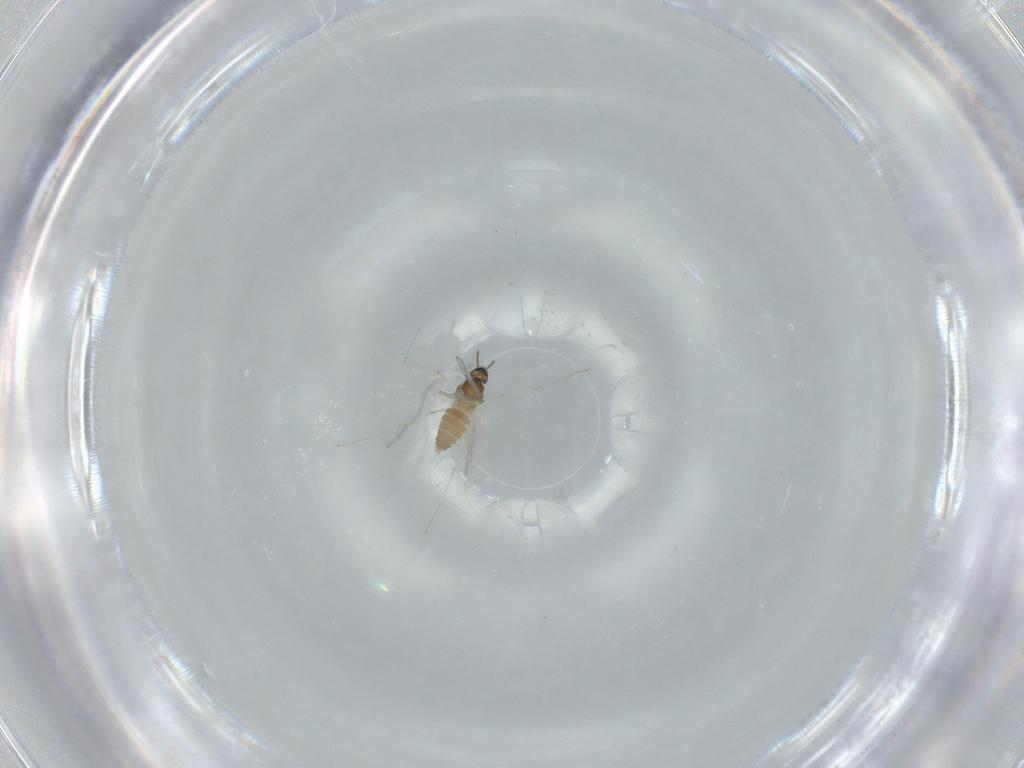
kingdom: Animalia
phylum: Arthropoda
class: Insecta
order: Diptera
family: Cecidomyiidae
